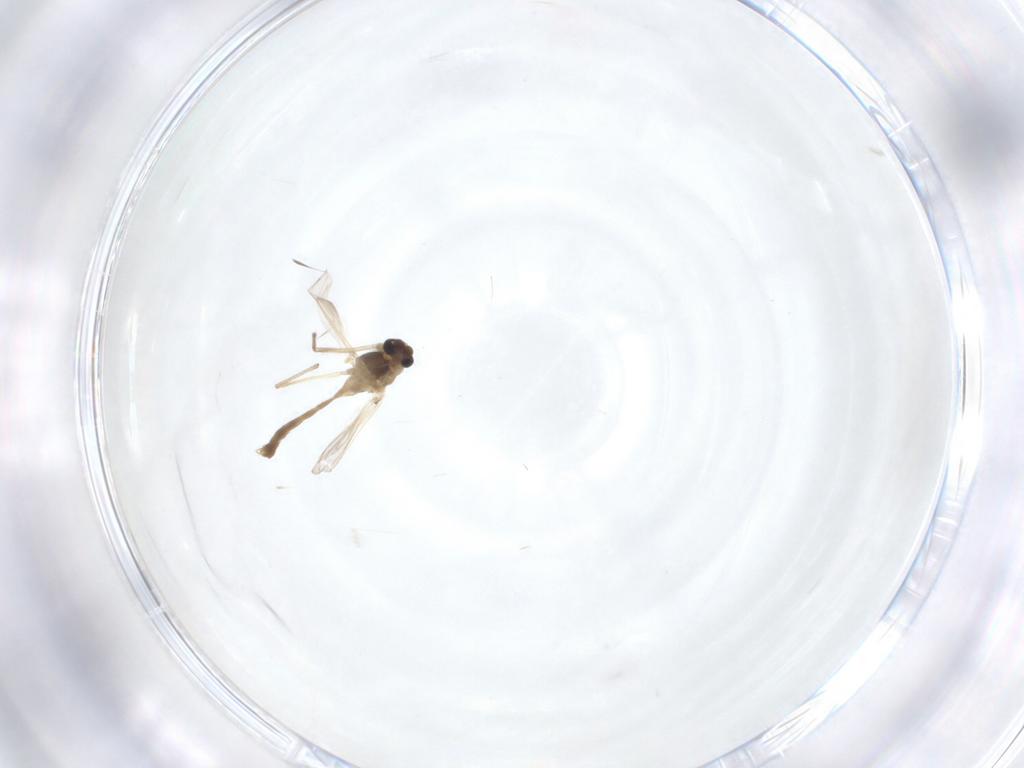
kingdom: Animalia
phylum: Arthropoda
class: Insecta
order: Diptera
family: Chironomidae
